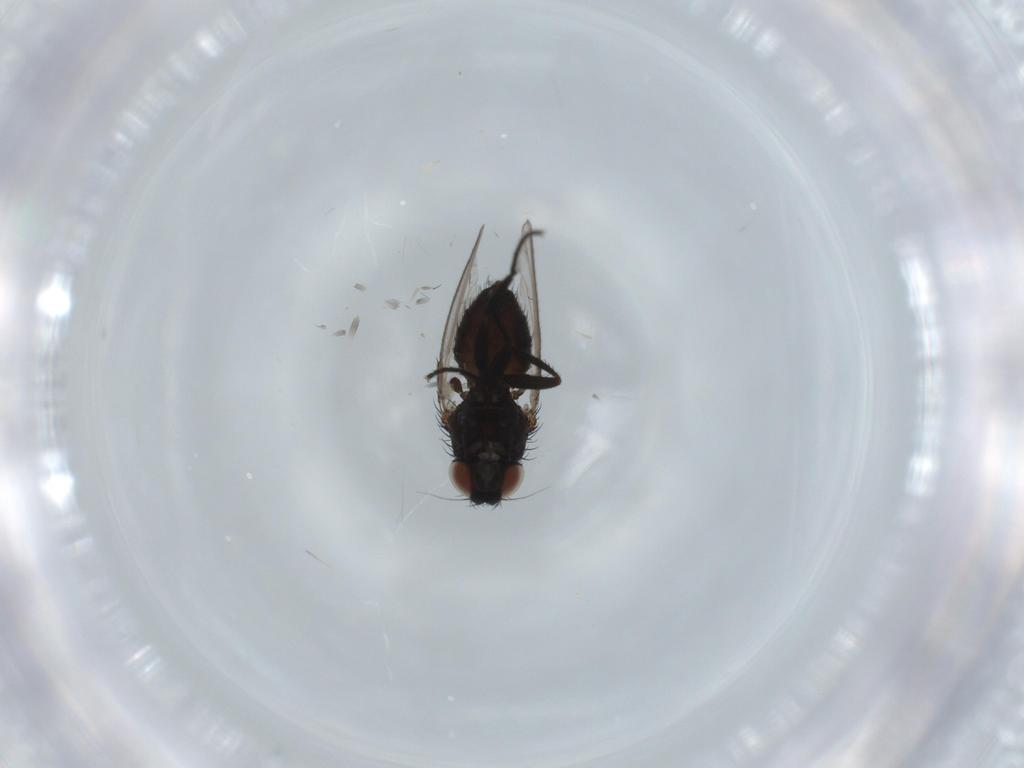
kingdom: Animalia
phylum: Arthropoda
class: Insecta
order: Diptera
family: Milichiidae
